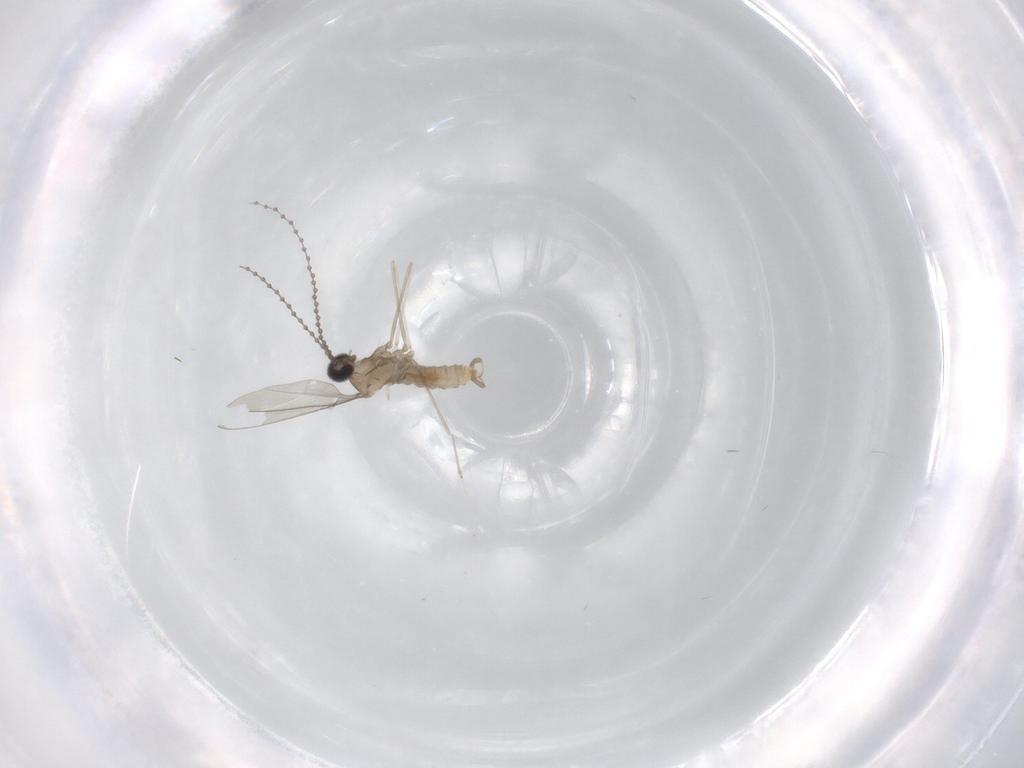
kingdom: Animalia
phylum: Arthropoda
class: Insecta
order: Diptera
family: Cecidomyiidae
